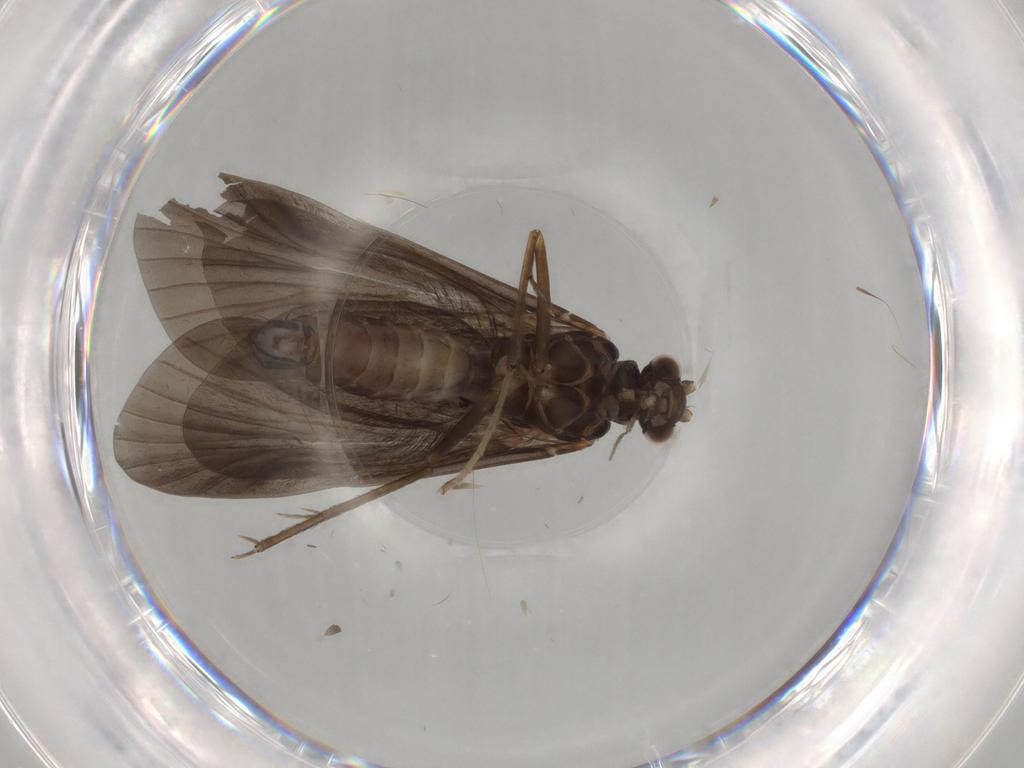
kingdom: Animalia
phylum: Arthropoda
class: Insecta
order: Trichoptera
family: Hydropsychidae
